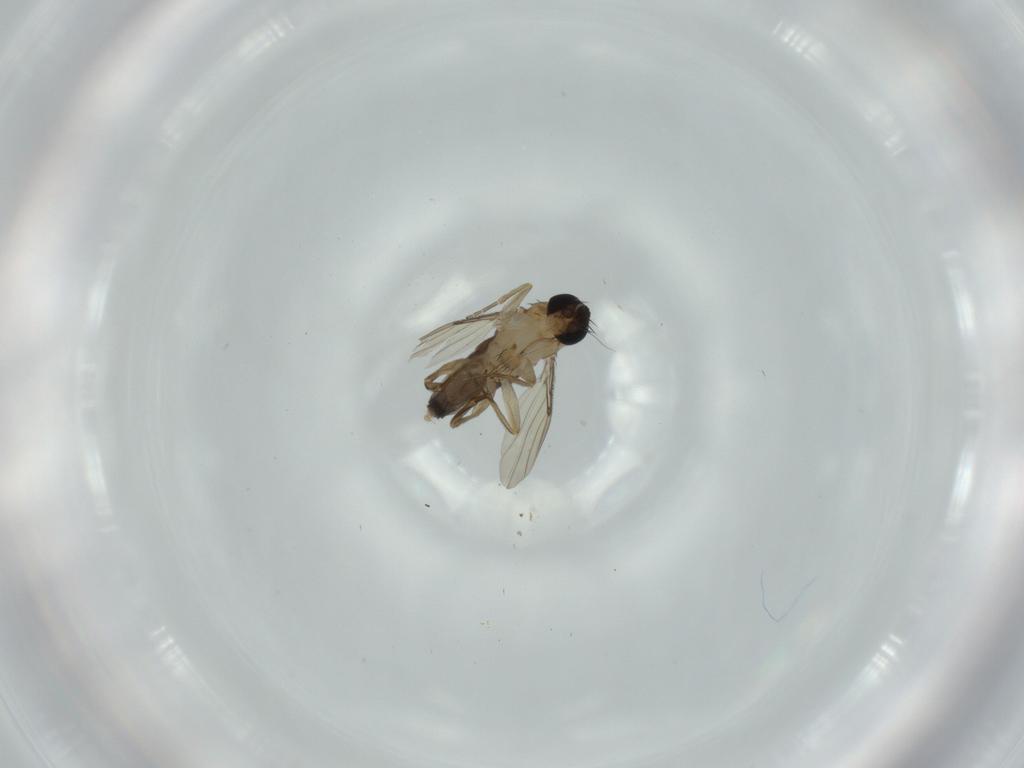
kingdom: Animalia
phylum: Arthropoda
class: Insecta
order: Diptera
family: Phoridae
